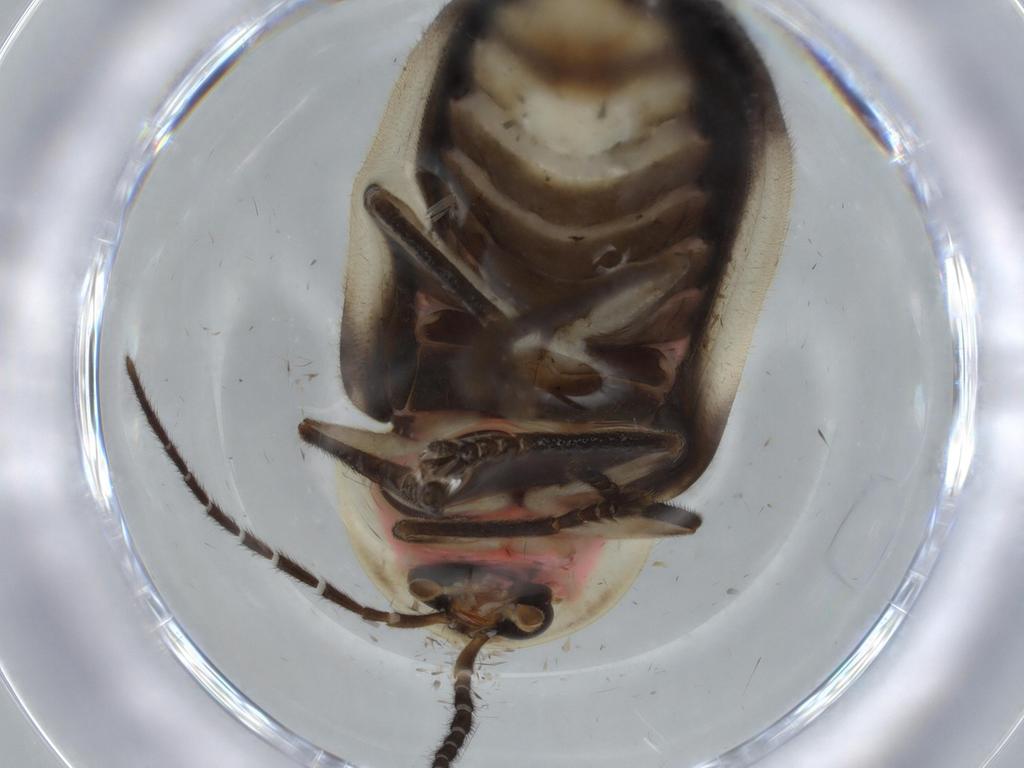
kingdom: Animalia
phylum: Arthropoda
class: Insecta
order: Coleoptera
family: Lampyridae
